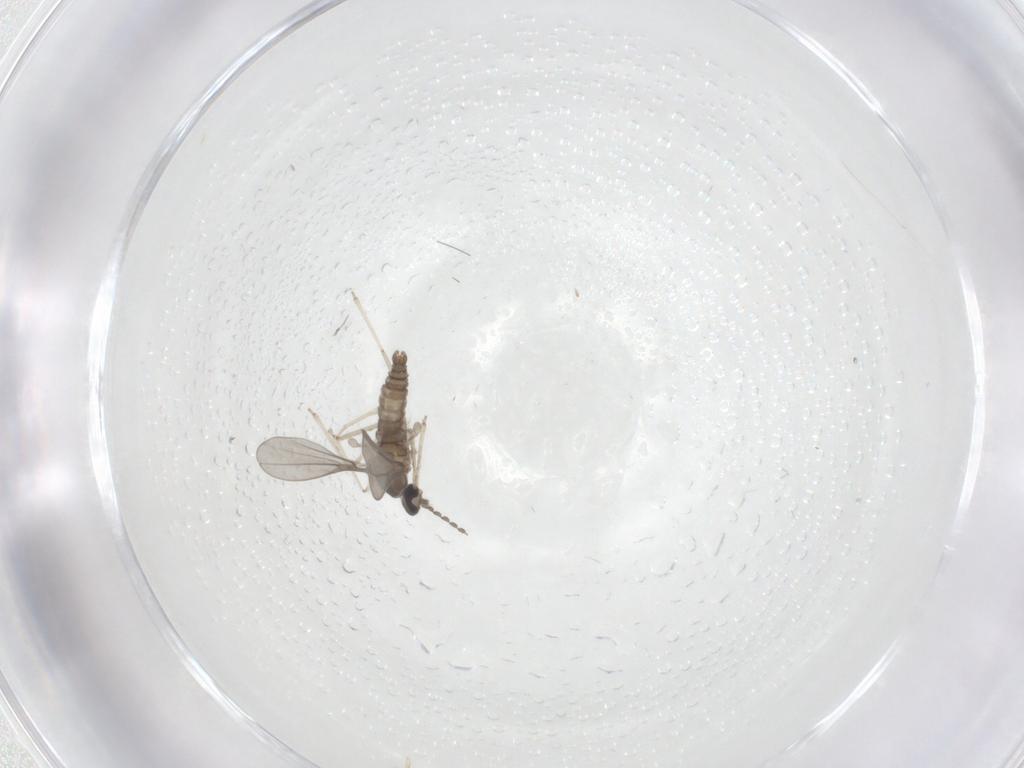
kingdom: Animalia
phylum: Arthropoda
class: Insecta
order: Diptera
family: Cecidomyiidae
